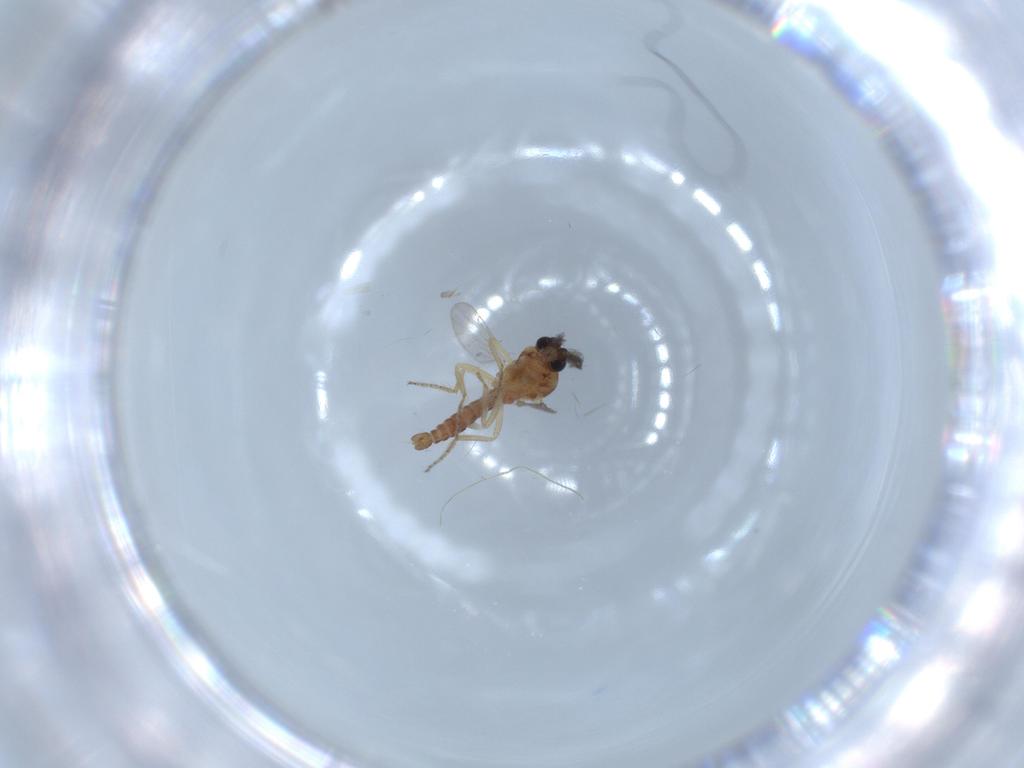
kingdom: Animalia
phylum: Arthropoda
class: Insecta
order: Diptera
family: Ceratopogonidae
